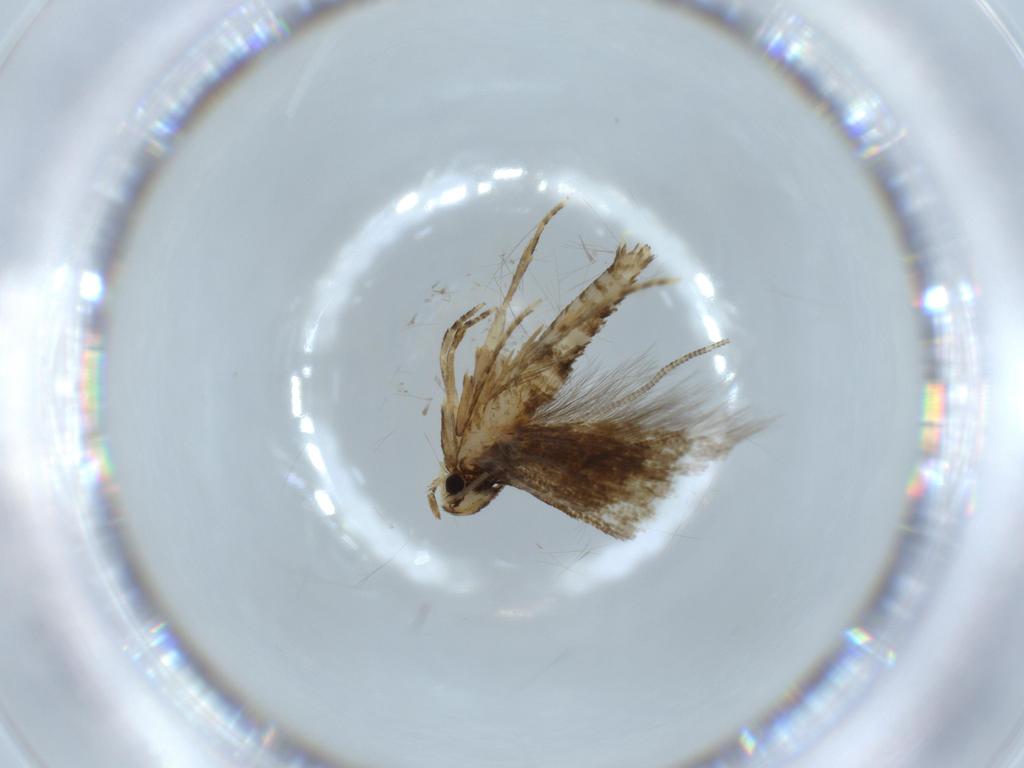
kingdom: Animalia
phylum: Arthropoda
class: Insecta
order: Lepidoptera
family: Tineidae
